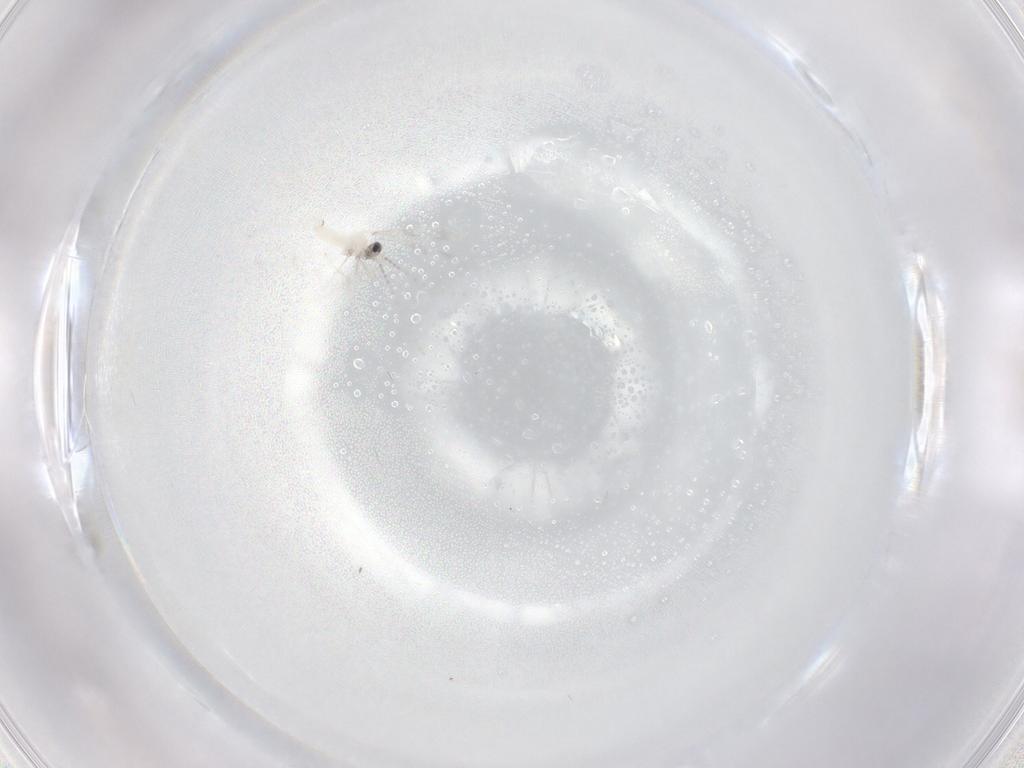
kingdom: Animalia
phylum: Arthropoda
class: Insecta
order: Diptera
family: Cecidomyiidae
